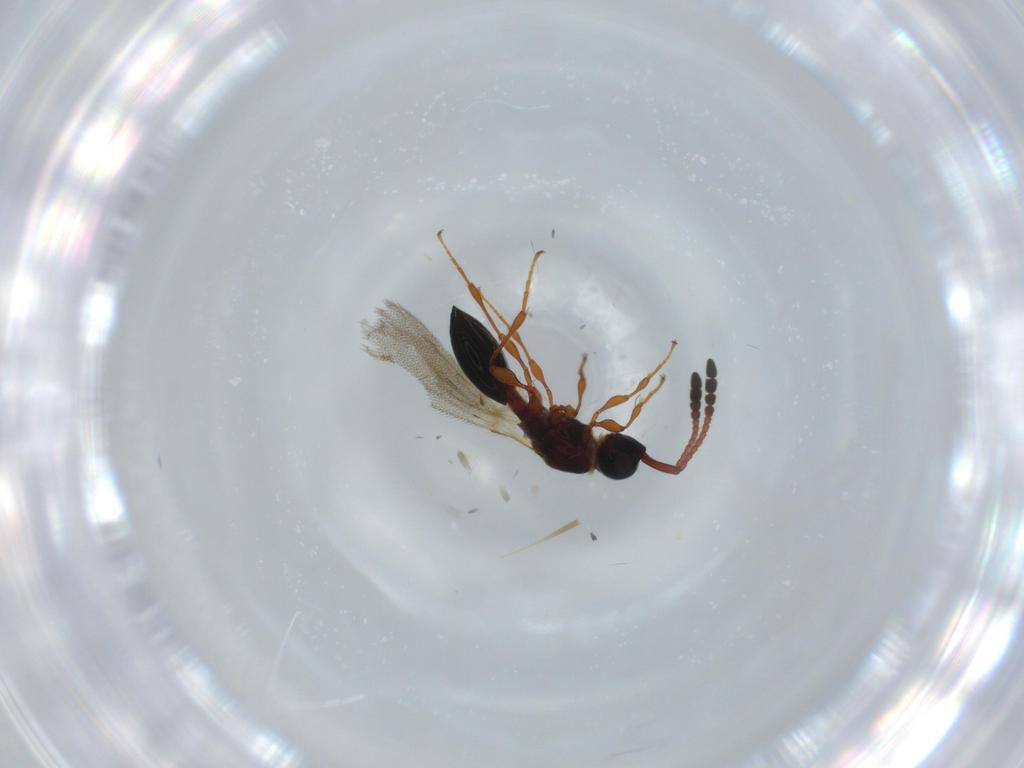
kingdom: Animalia
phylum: Arthropoda
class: Insecta
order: Hymenoptera
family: Diapriidae
